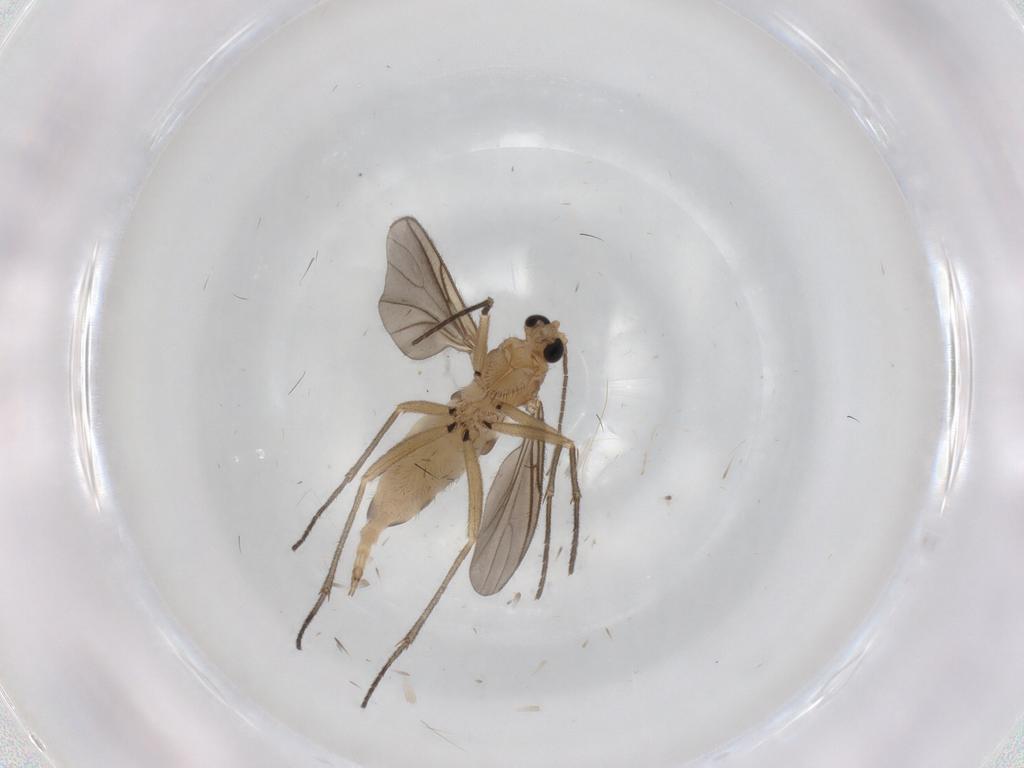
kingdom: Animalia
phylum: Arthropoda
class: Insecta
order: Diptera
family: Sciaridae
